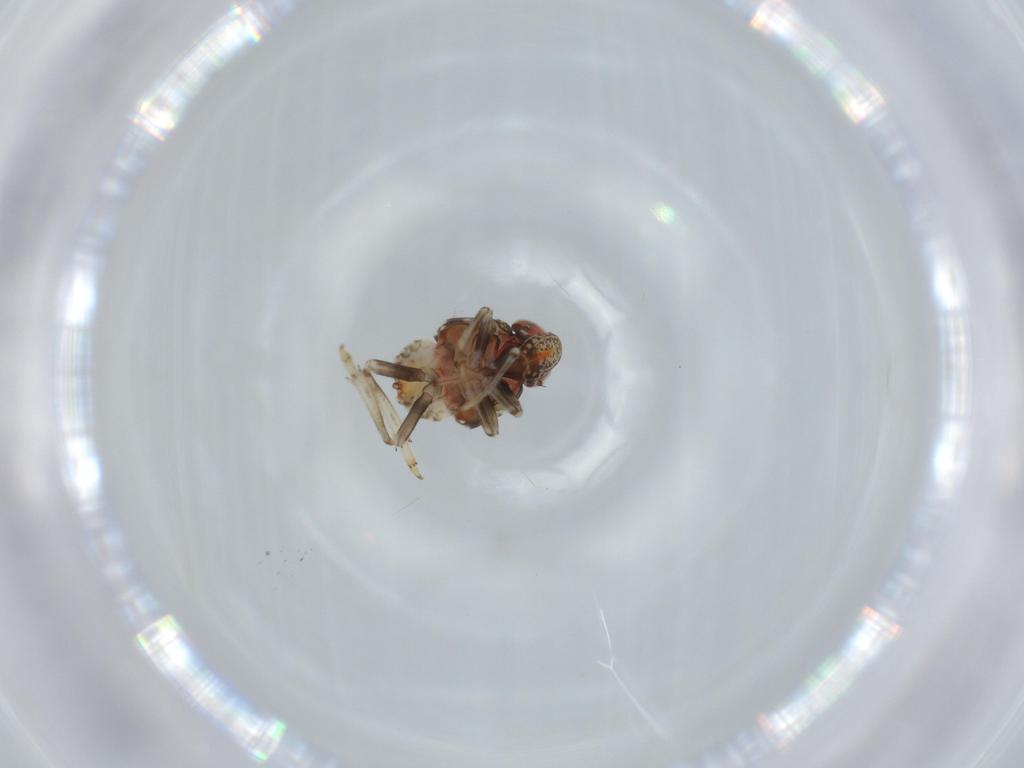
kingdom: Animalia
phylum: Arthropoda
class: Insecta
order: Hemiptera
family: Issidae
